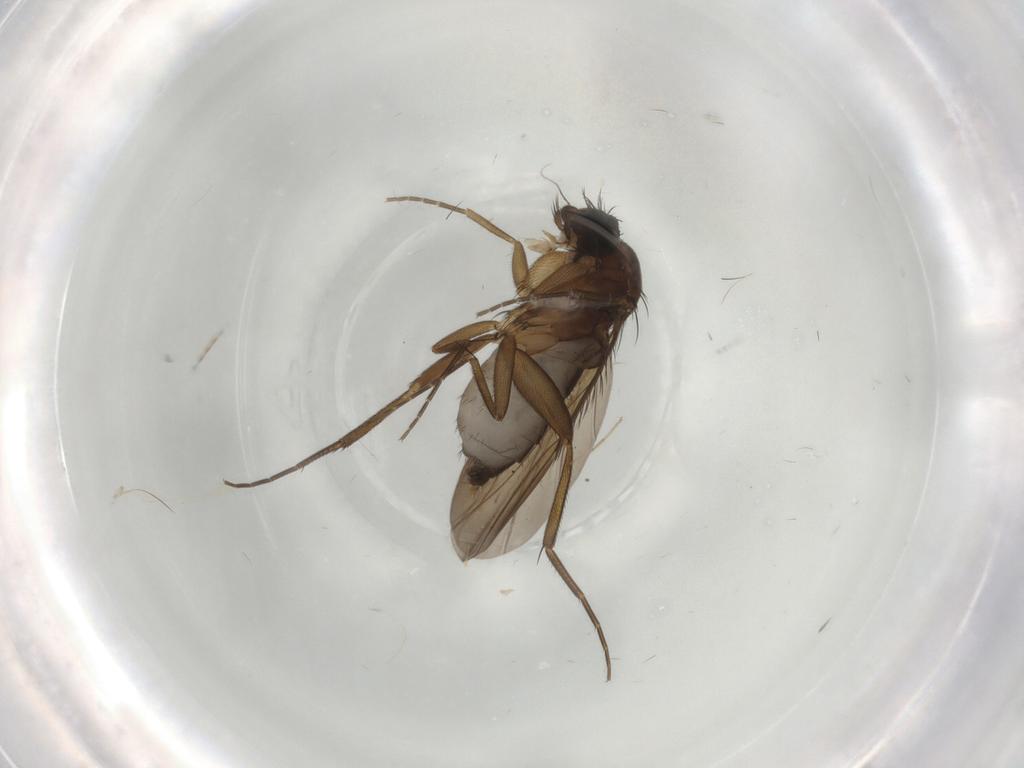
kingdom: Animalia
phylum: Arthropoda
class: Insecta
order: Diptera
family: Phoridae
